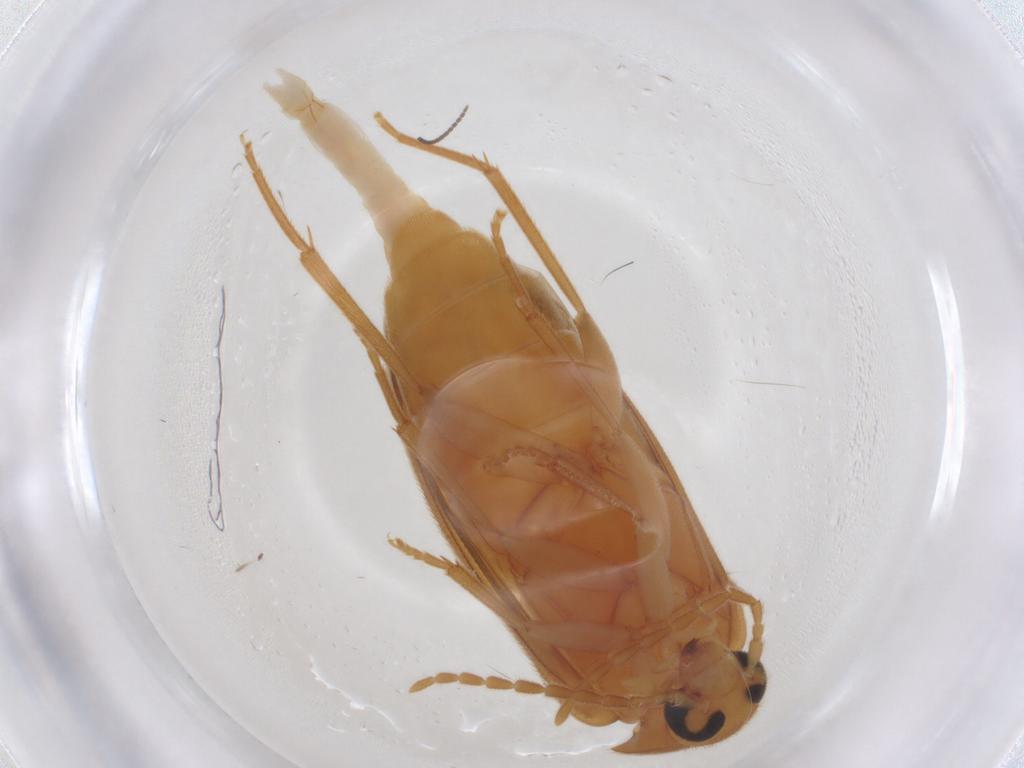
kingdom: Animalia
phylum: Arthropoda
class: Insecta
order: Coleoptera
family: Scraptiidae
